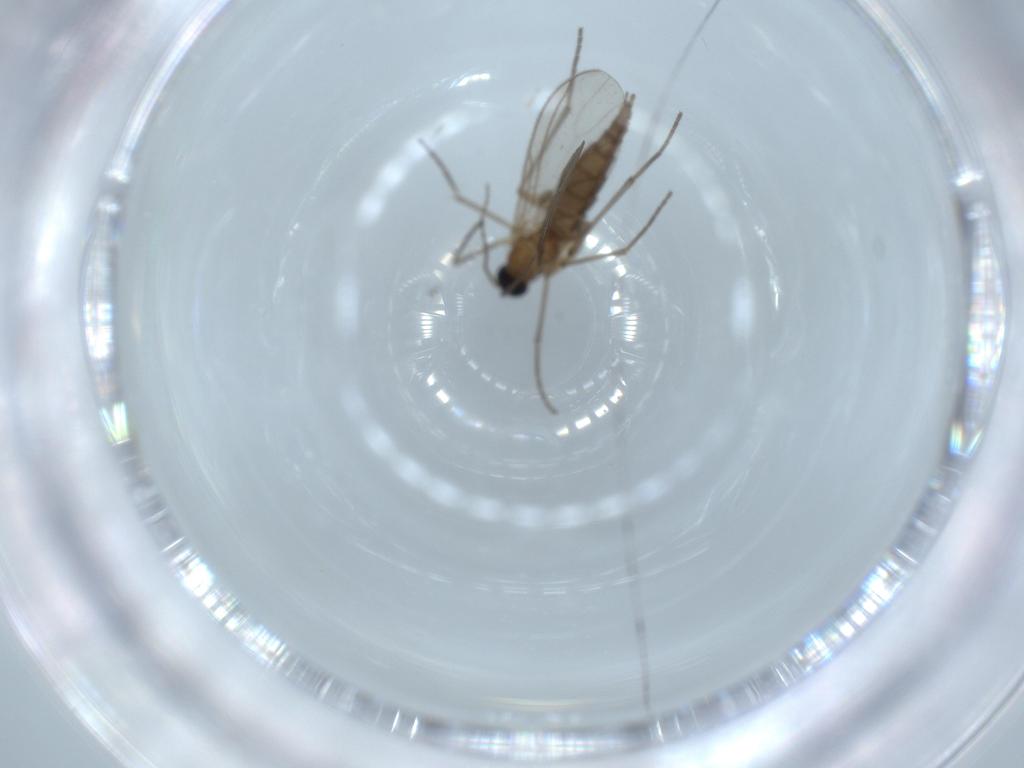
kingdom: Animalia
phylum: Arthropoda
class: Insecta
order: Diptera
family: Sciaridae
